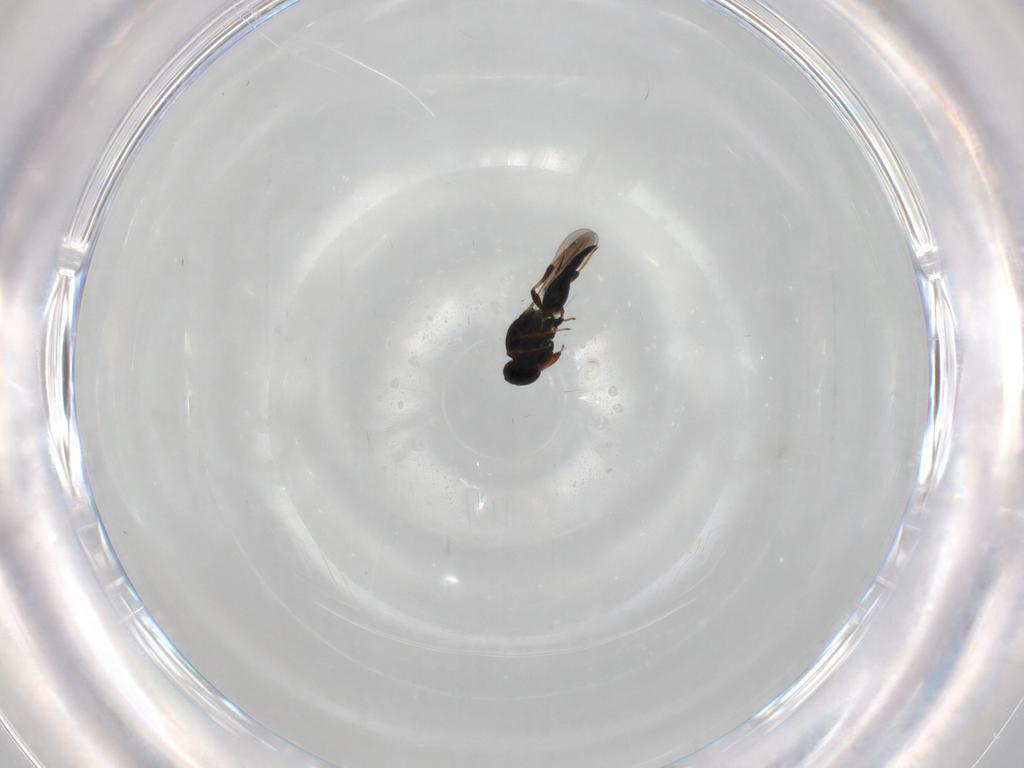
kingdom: Animalia
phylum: Arthropoda
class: Insecta
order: Hymenoptera
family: Platygastridae
